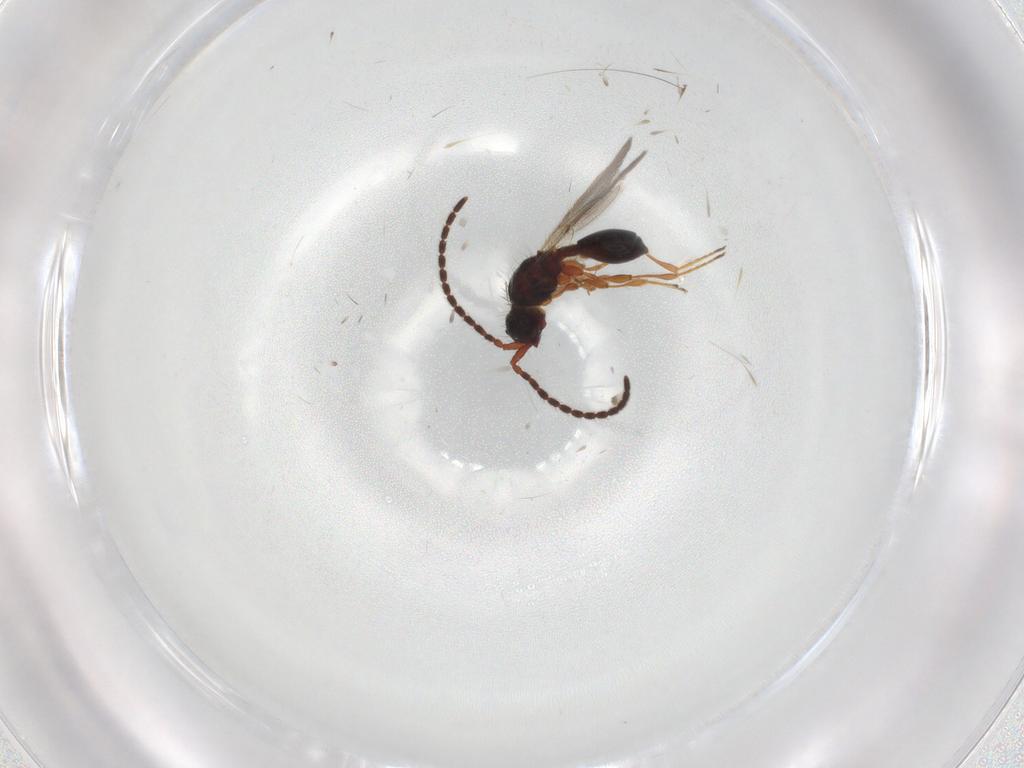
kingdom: Animalia
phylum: Arthropoda
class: Insecta
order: Hymenoptera
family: Diapriidae
